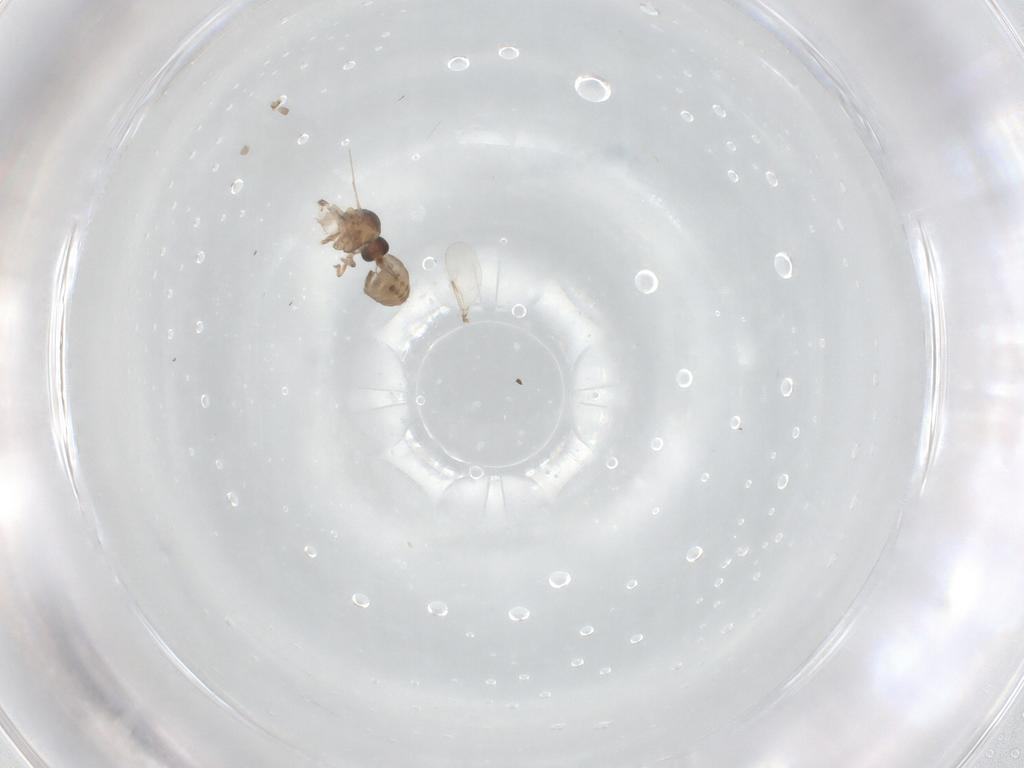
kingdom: Animalia
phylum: Arthropoda
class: Insecta
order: Diptera
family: Ceratopogonidae
